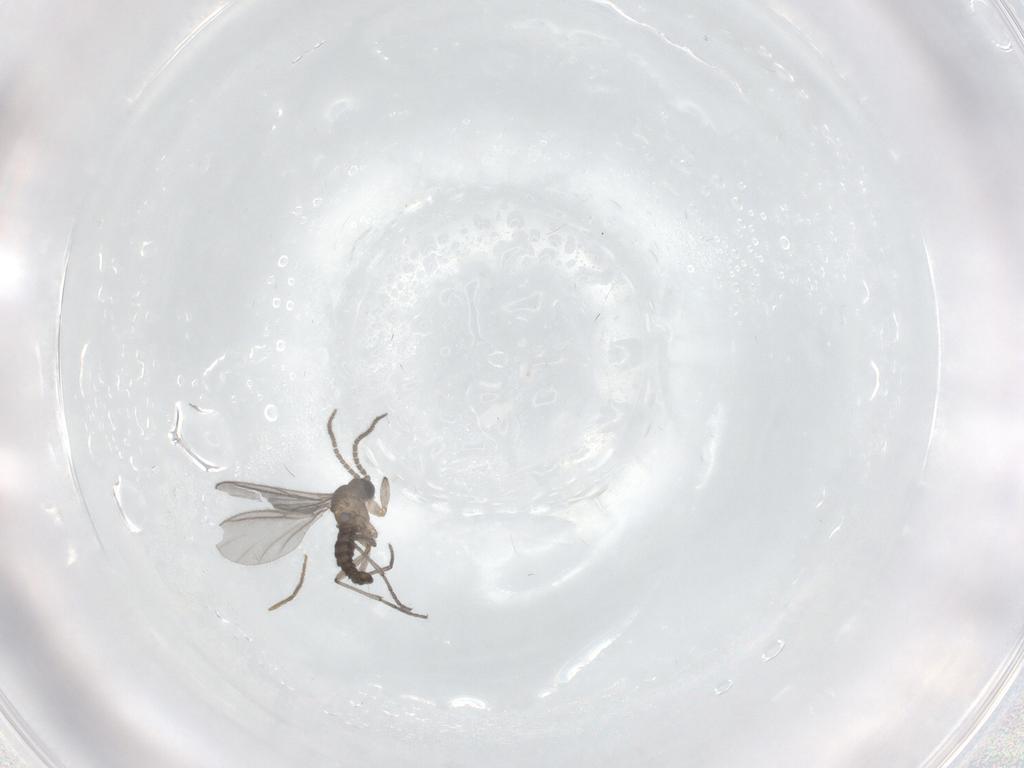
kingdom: Animalia
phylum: Arthropoda
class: Insecta
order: Diptera
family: Sciaridae
